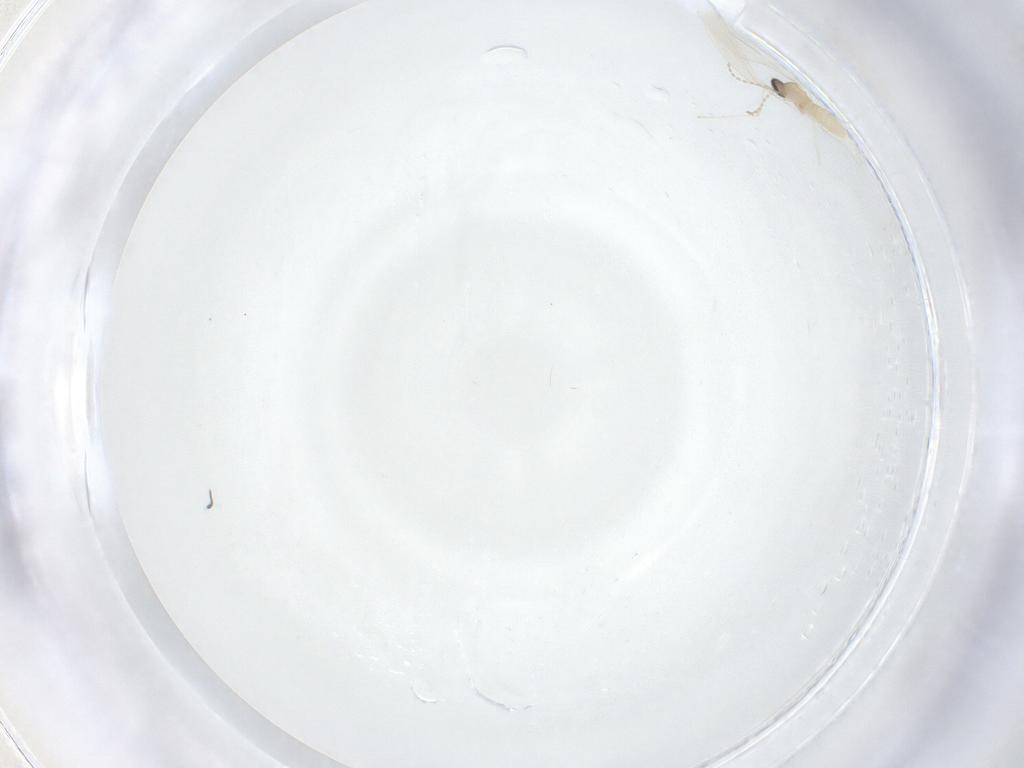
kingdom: Animalia
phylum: Arthropoda
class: Insecta
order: Diptera
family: Cecidomyiidae
